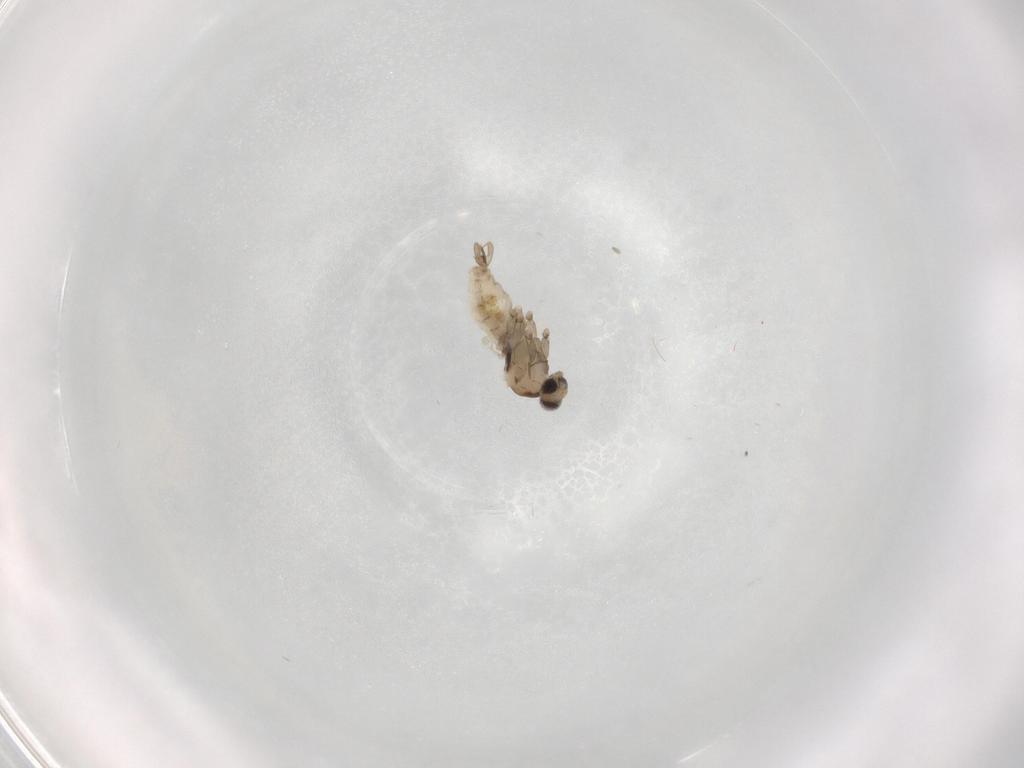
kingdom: Animalia
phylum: Arthropoda
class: Insecta
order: Diptera
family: Cecidomyiidae
